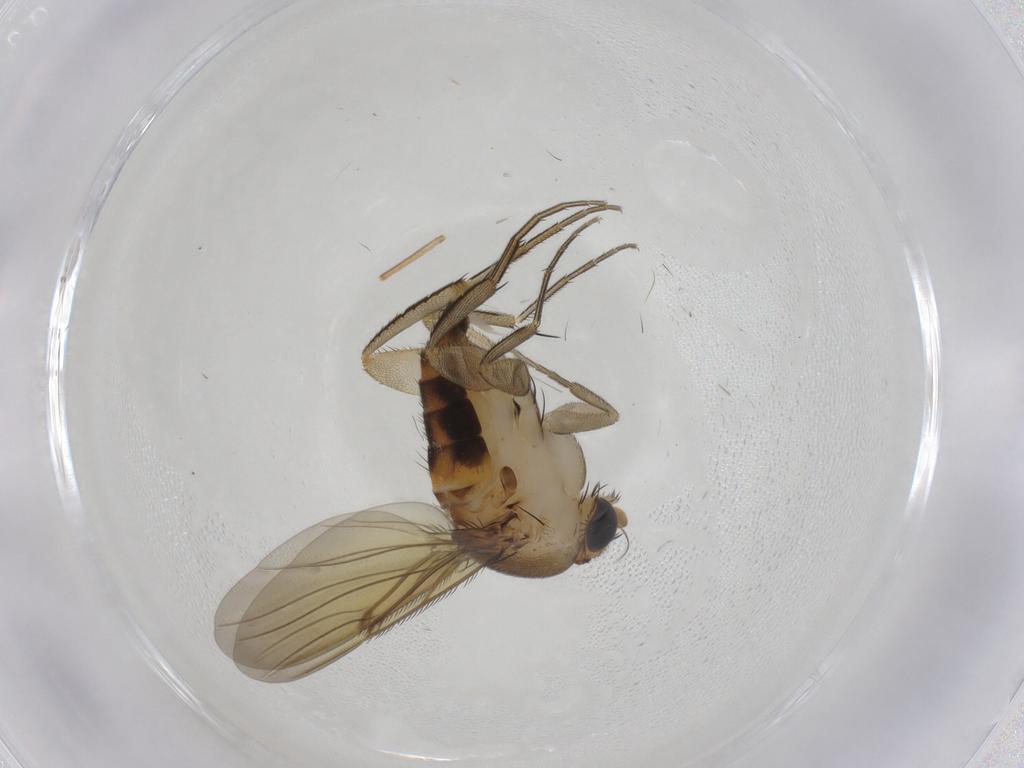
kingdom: Animalia
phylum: Arthropoda
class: Insecta
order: Diptera
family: Phoridae
